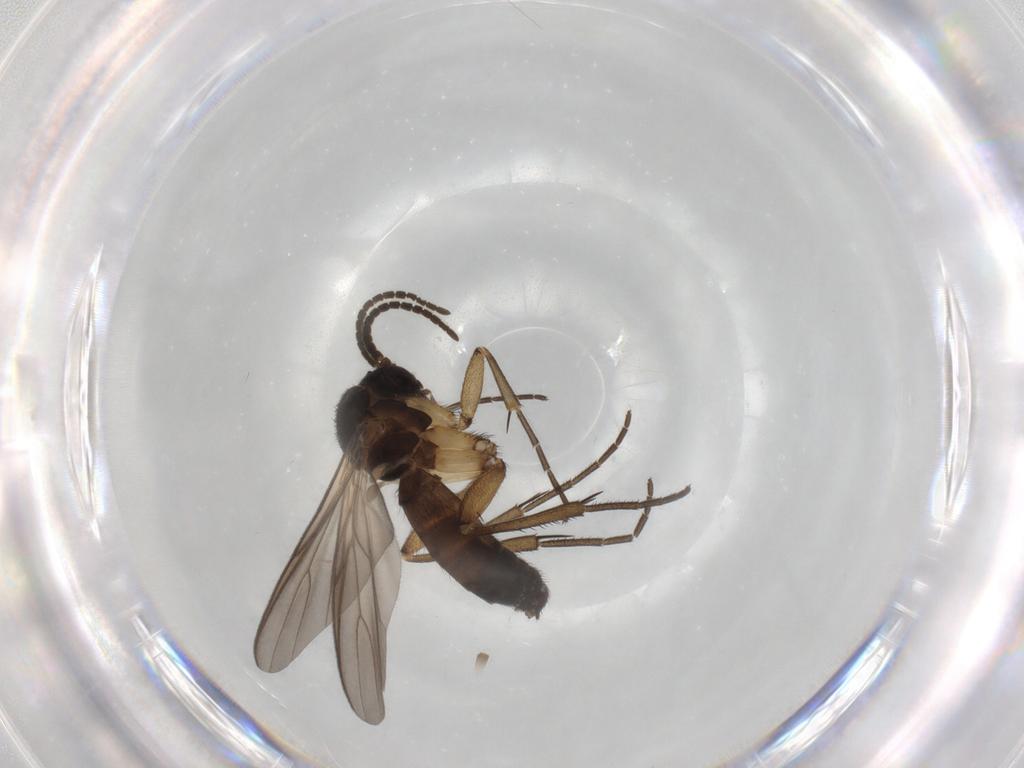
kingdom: Animalia
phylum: Arthropoda
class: Insecta
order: Diptera
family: Mycetophilidae
